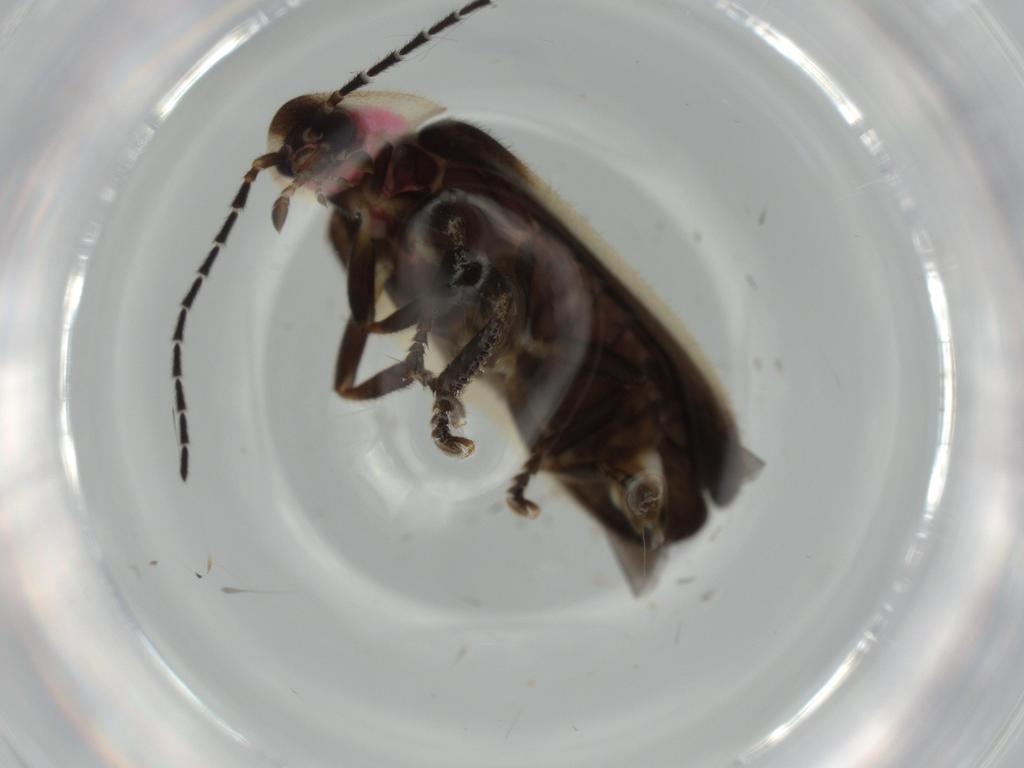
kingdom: Animalia
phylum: Arthropoda
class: Insecta
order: Coleoptera
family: Lampyridae
